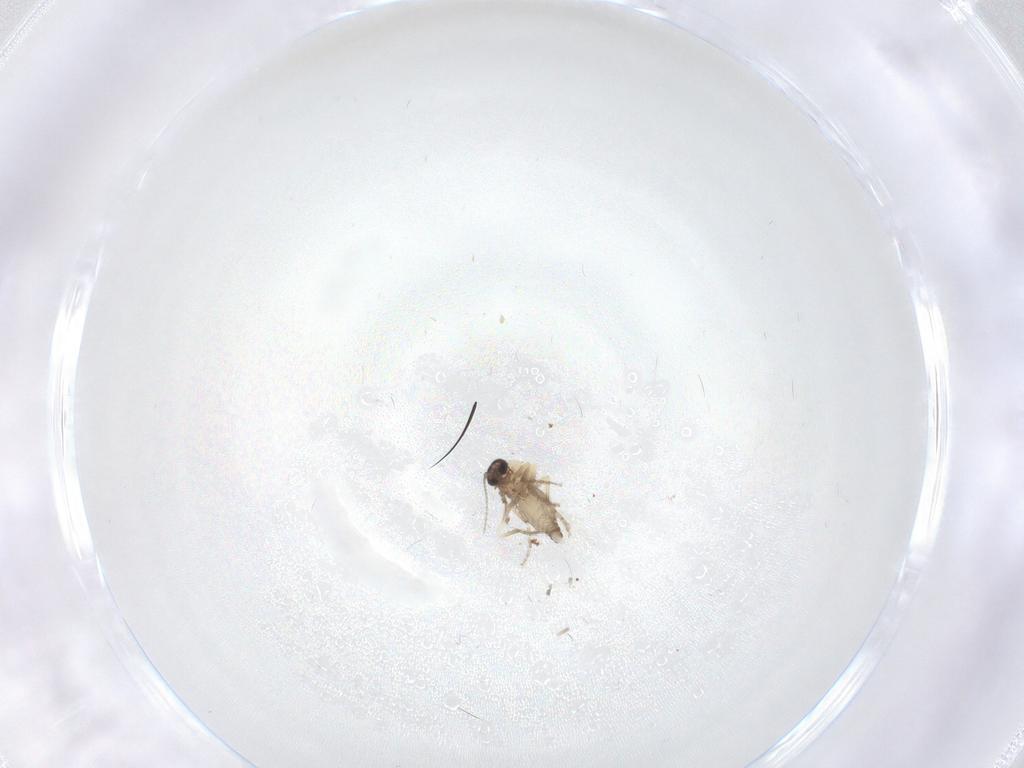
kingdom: Animalia
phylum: Arthropoda
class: Insecta
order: Diptera
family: Ceratopogonidae
